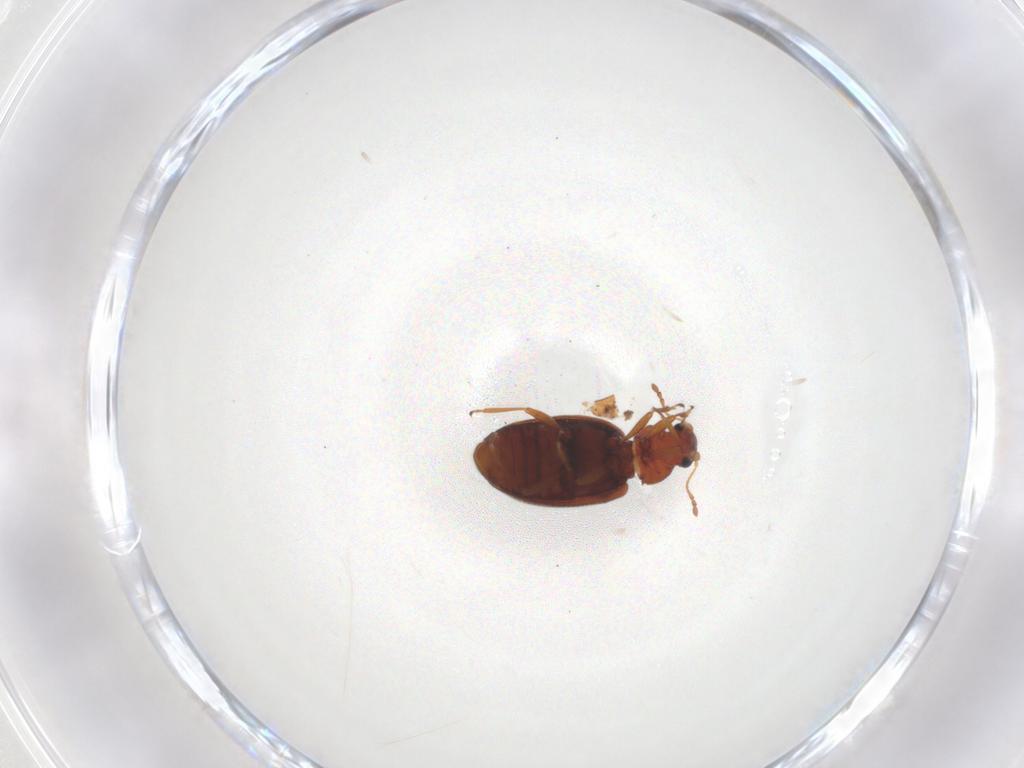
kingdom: Animalia
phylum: Arthropoda
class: Insecta
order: Coleoptera
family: Latridiidae
